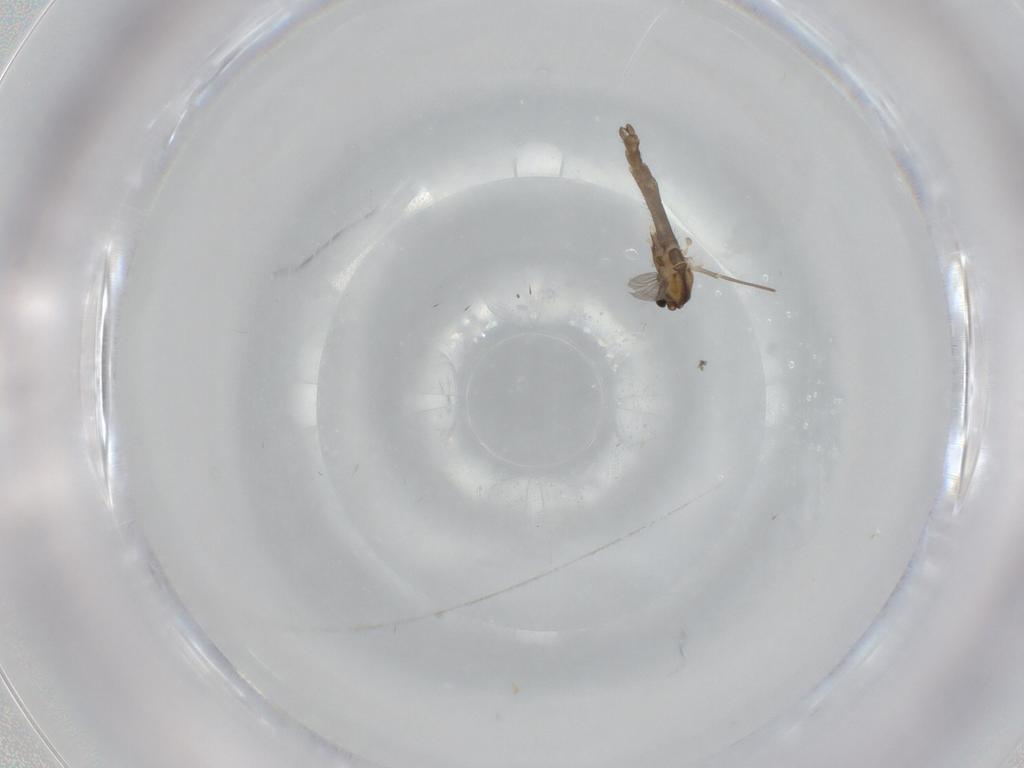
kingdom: Animalia
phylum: Arthropoda
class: Insecta
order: Diptera
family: Chironomidae
